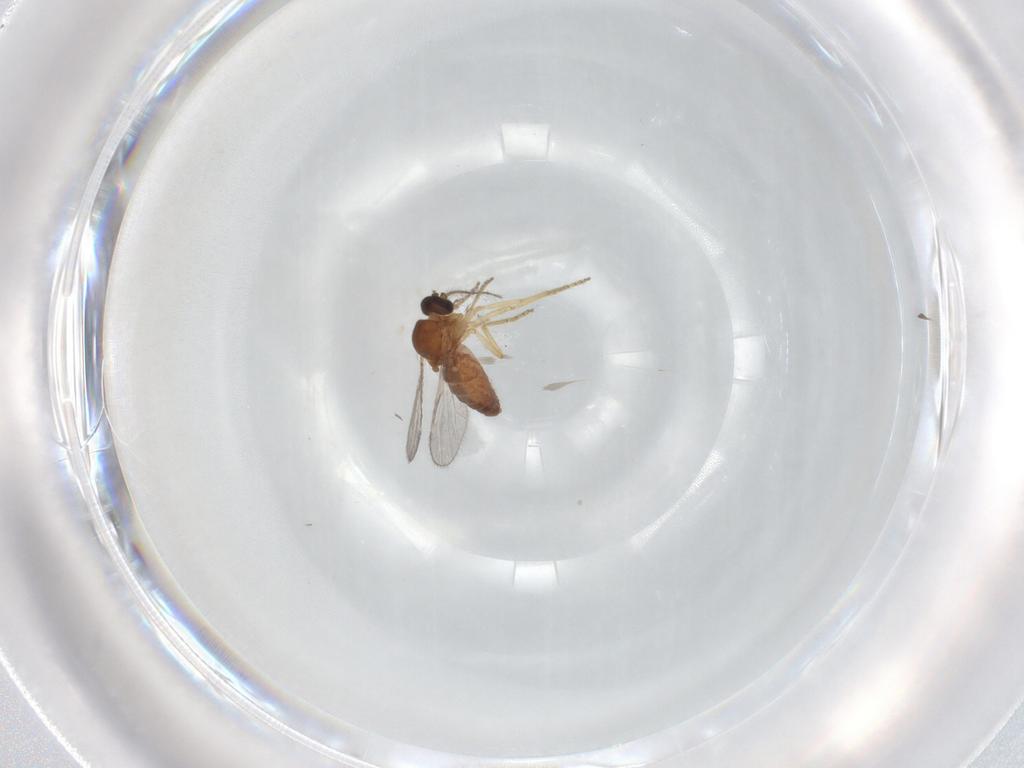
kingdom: Animalia
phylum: Arthropoda
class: Insecta
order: Diptera
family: Ceratopogonidae
